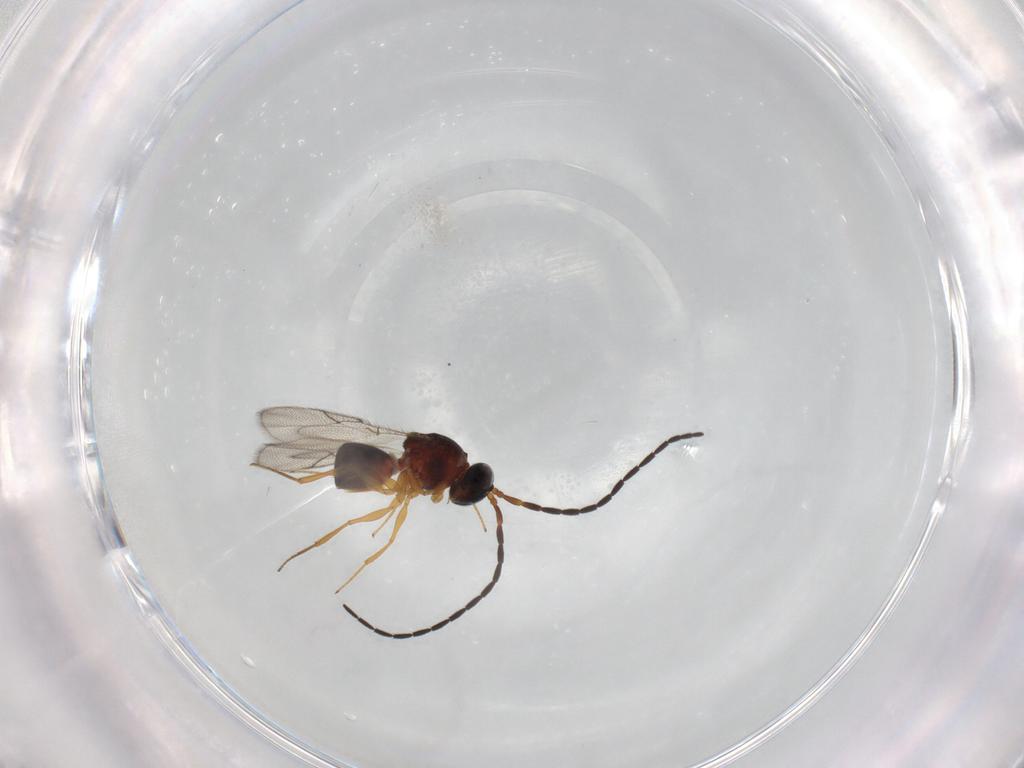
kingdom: Animalia
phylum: Arthropoda
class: Insecta
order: Hymenoptera
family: Figitidae
